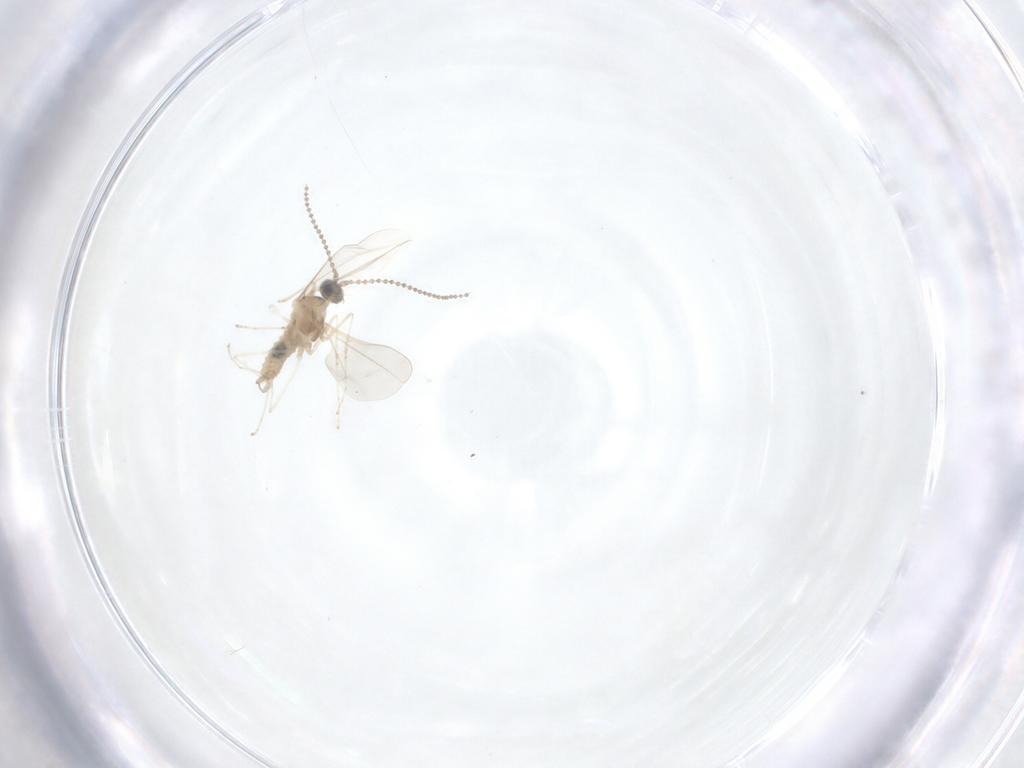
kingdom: Animalia
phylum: Arthropoda
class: Insecta
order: Diptera
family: Cecidomyiidae
